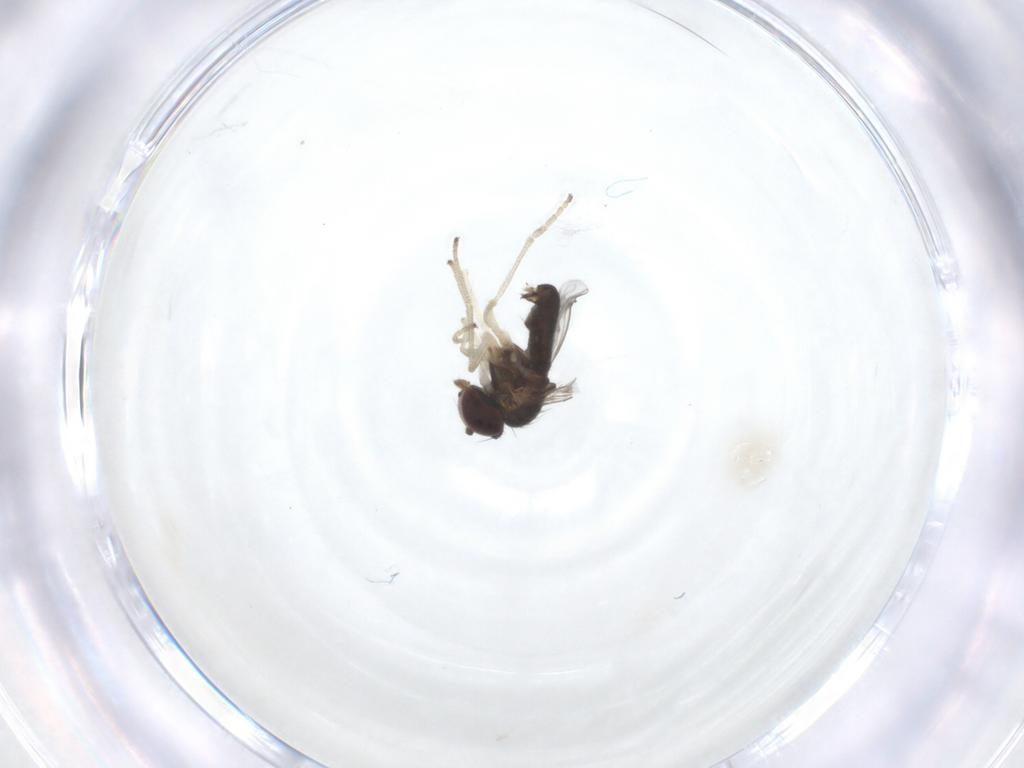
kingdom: Animalia
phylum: Arthropoda
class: Insecta
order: Diptera
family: Dolichopodidae
